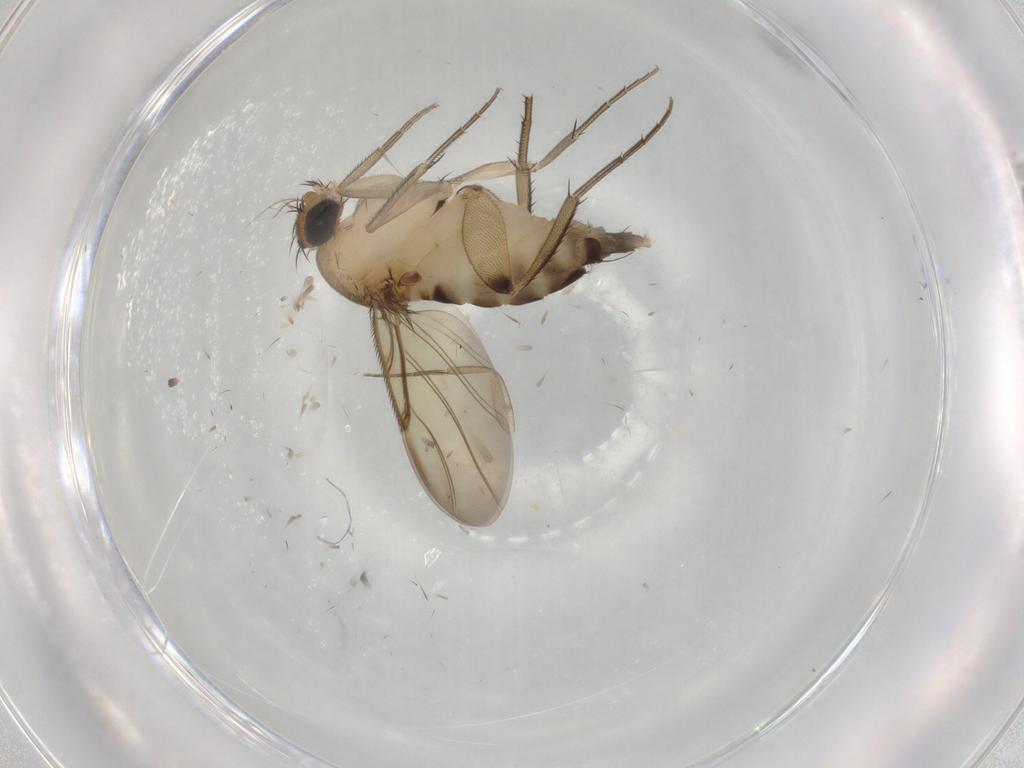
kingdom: Animalia
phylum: Arthropoda
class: Insecta
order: Diptera
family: Phoridae
